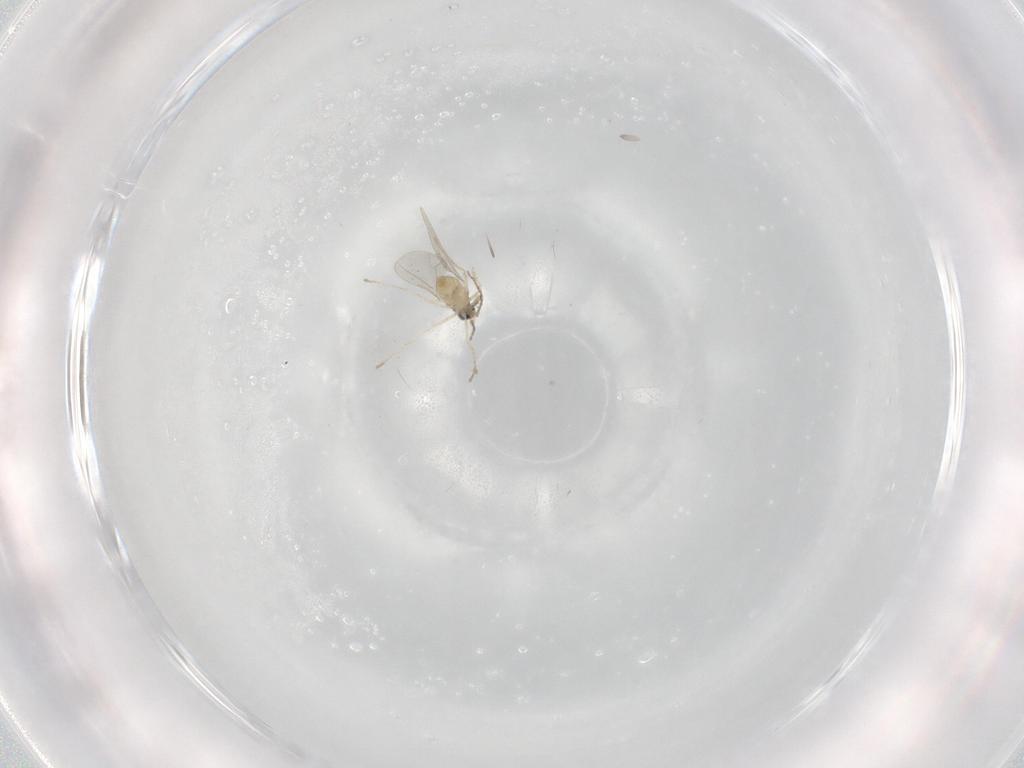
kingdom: Animalia
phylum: Arthropoda
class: Insecta
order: Diptera
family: Cecidomyiidae
